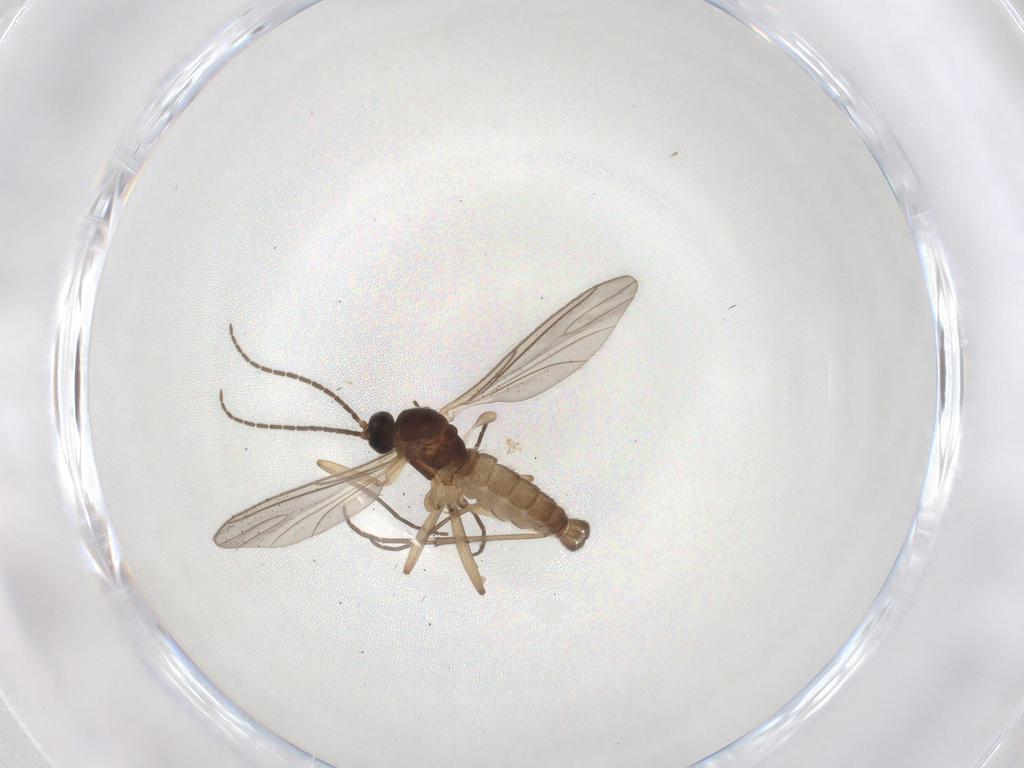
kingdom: Animalia
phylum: Arthropoda
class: Insecta
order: Diptera
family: Sciaridae
